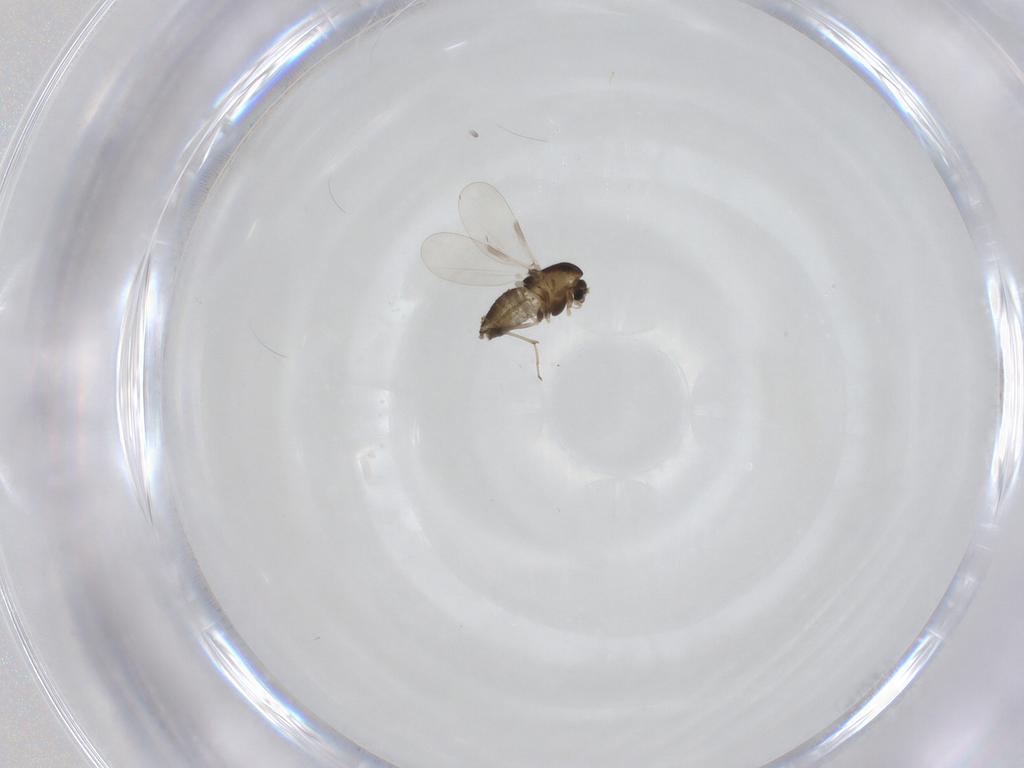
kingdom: Animalia
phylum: Arthropoda
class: Insecta
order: Diptera
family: Chironomidae
